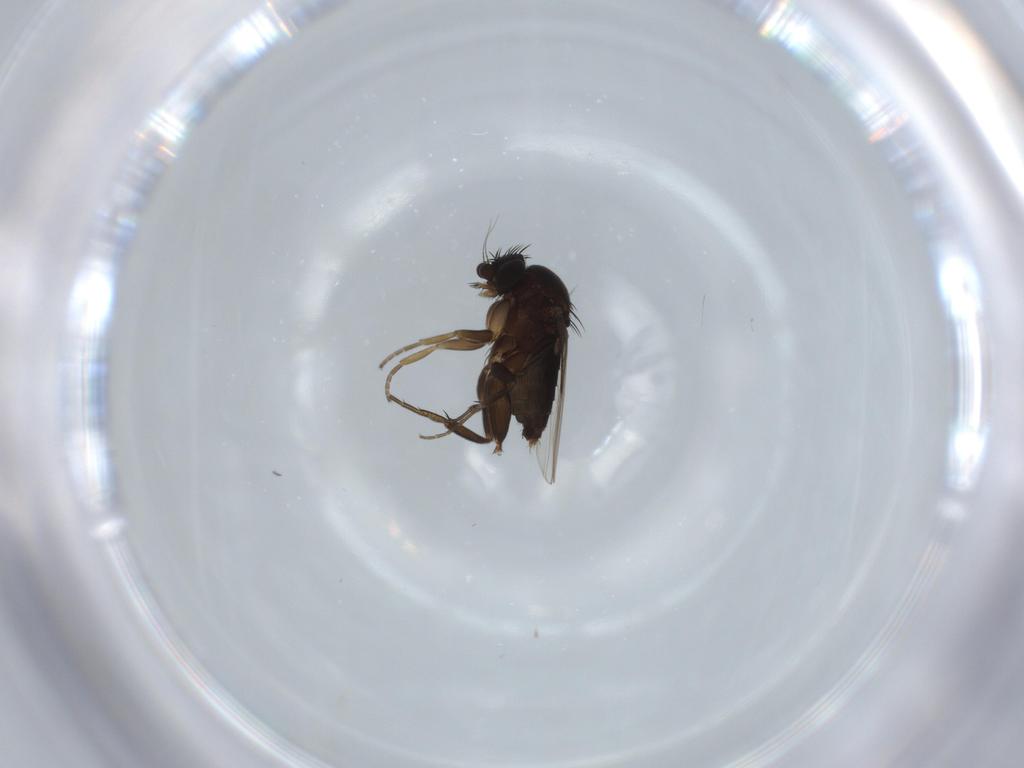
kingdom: Animalia
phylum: Arthropoda
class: Insecta
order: Diptera
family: Phoridae
